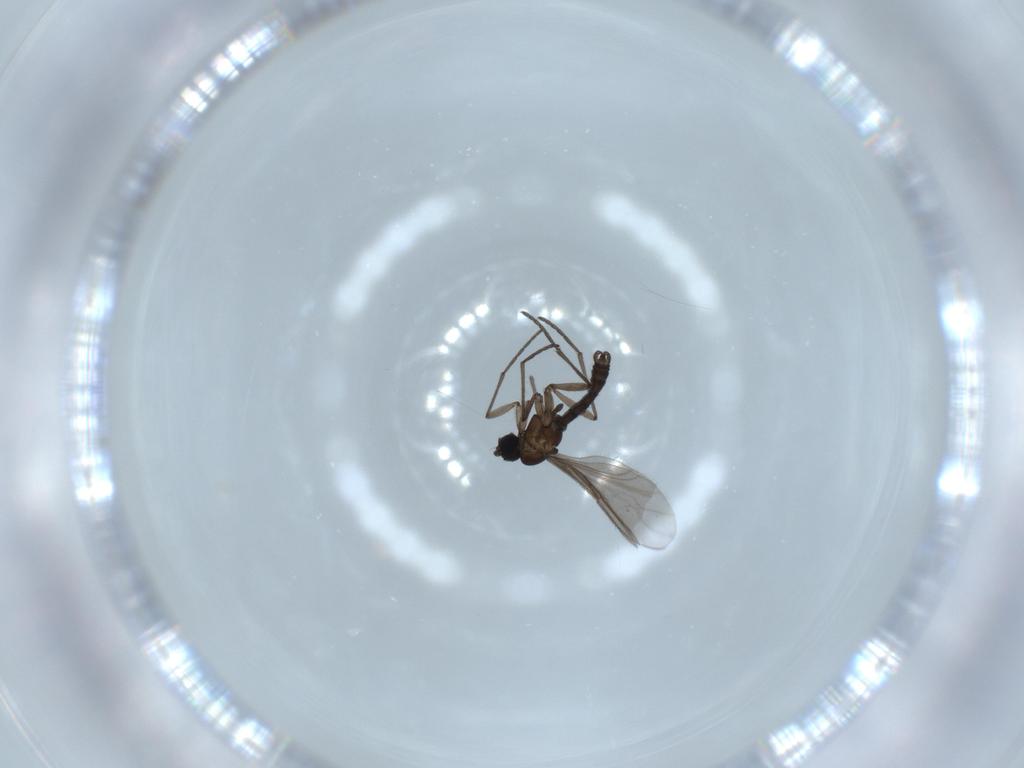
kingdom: Animalia
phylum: Arthropoda
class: Insecta
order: Diptera
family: Sciaridae
